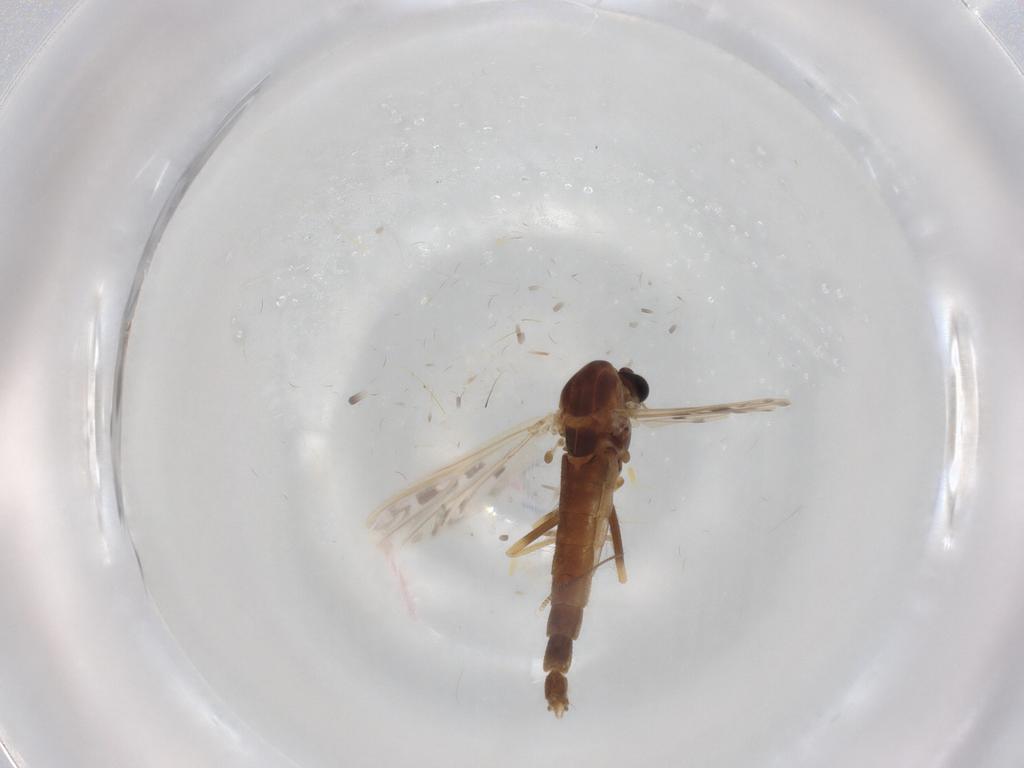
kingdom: Animalia
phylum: Arthropoda
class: Insecta
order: Diptera
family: Psychodidae
